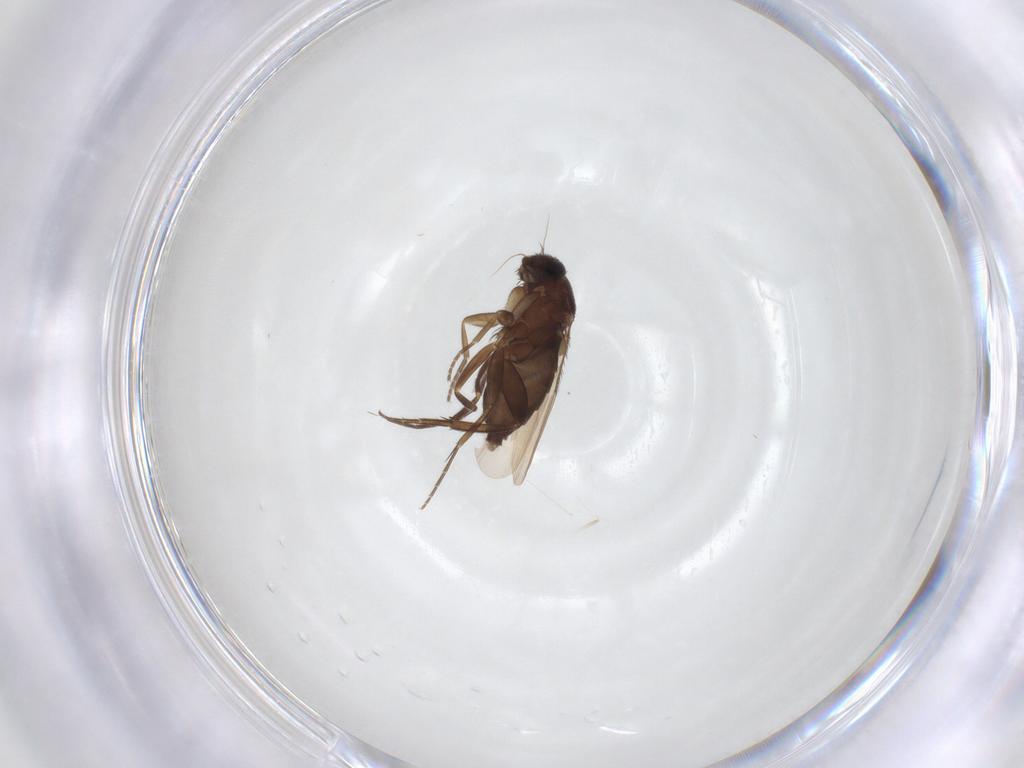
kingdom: Animalia
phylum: Arthropoda
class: Insecta
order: Diptera
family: Phoridae
